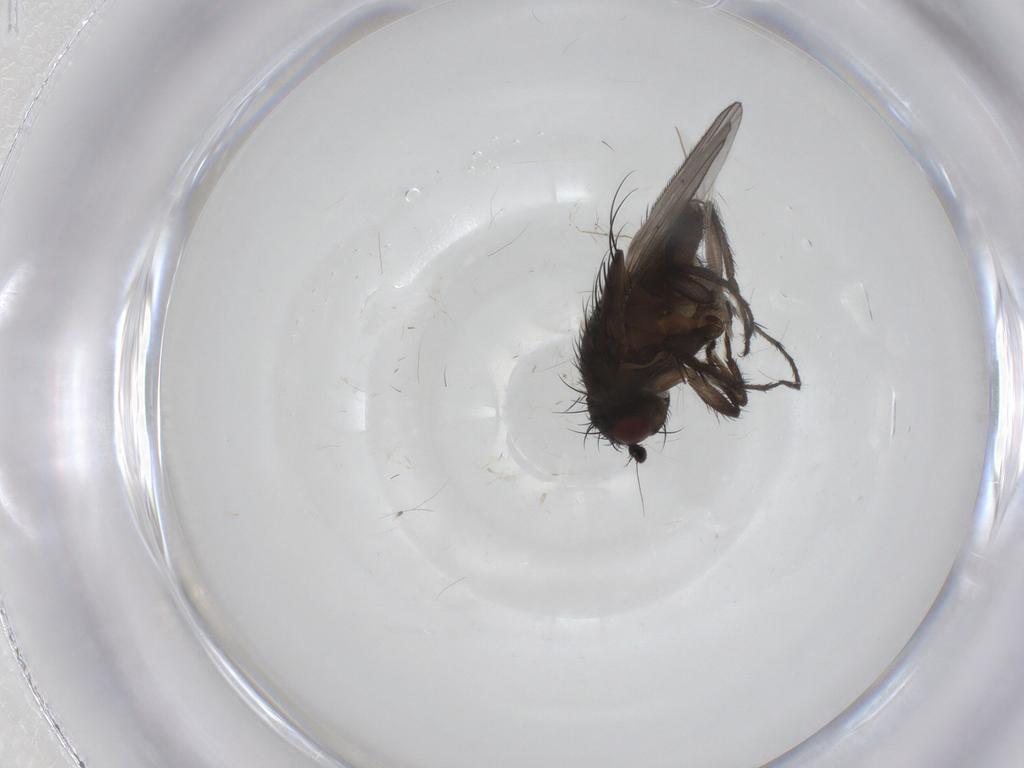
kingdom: Animalia
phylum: Arthropoda
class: Insecta
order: Diptera
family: Sphaeroceridae
